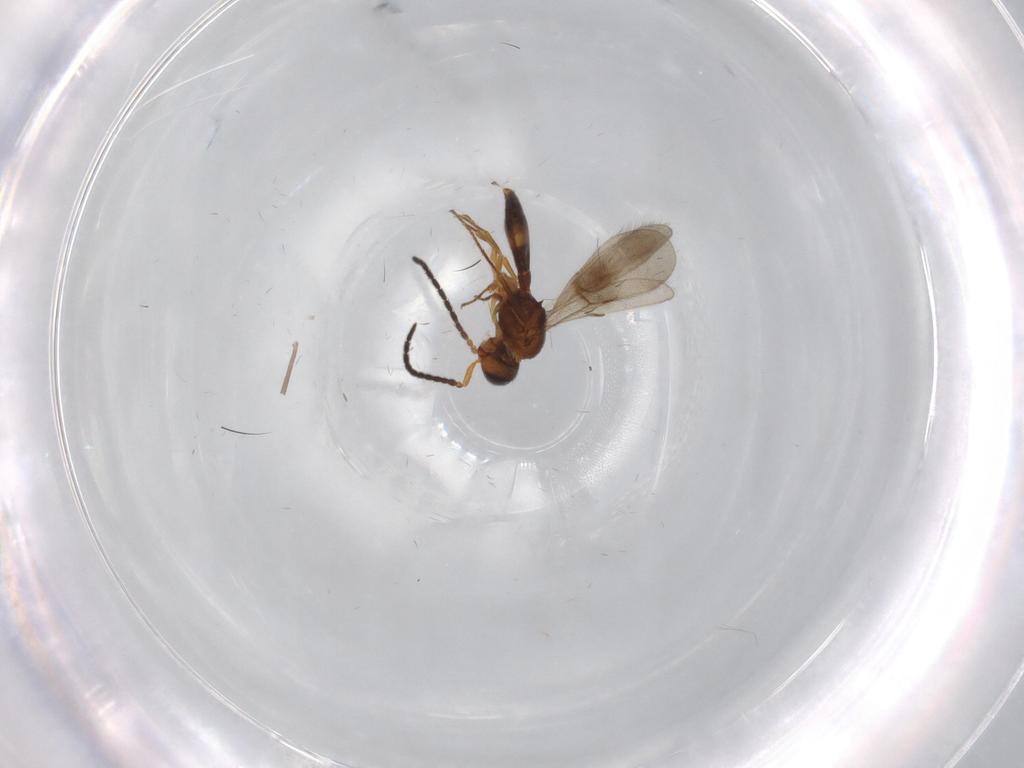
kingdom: Animalia
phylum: Arthropoda
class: Insecta
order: Hymenoptera
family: Scelionidae
